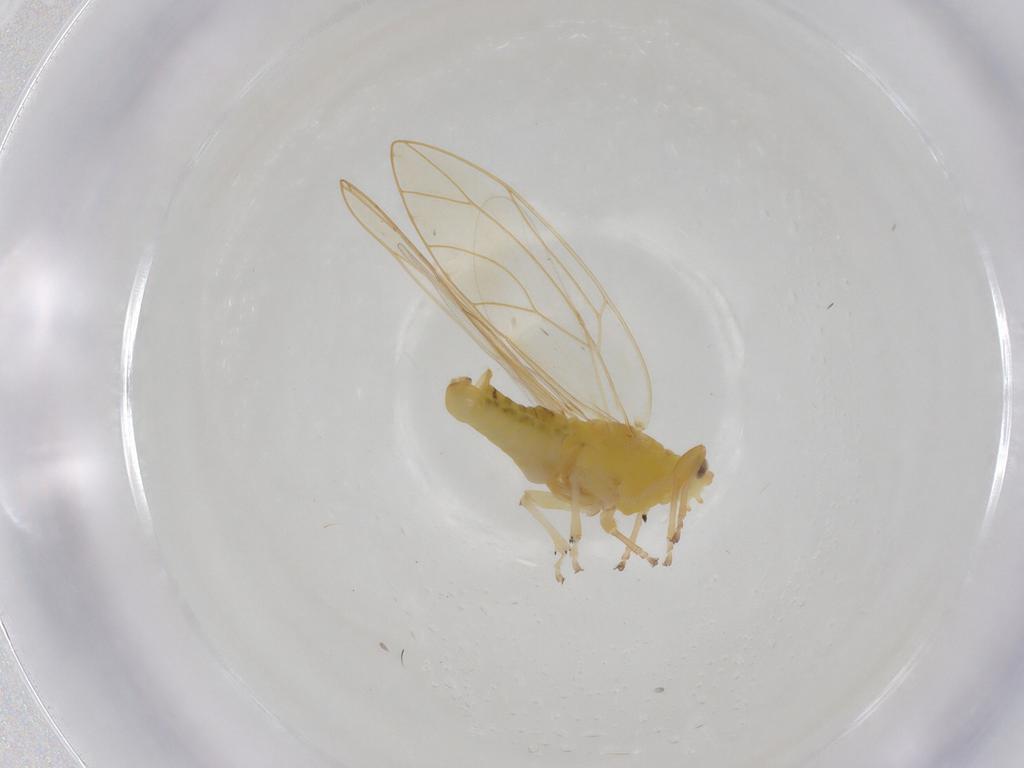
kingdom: Animalia
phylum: Arthropoda
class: Insecta
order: Hemiptera
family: Triozidae
